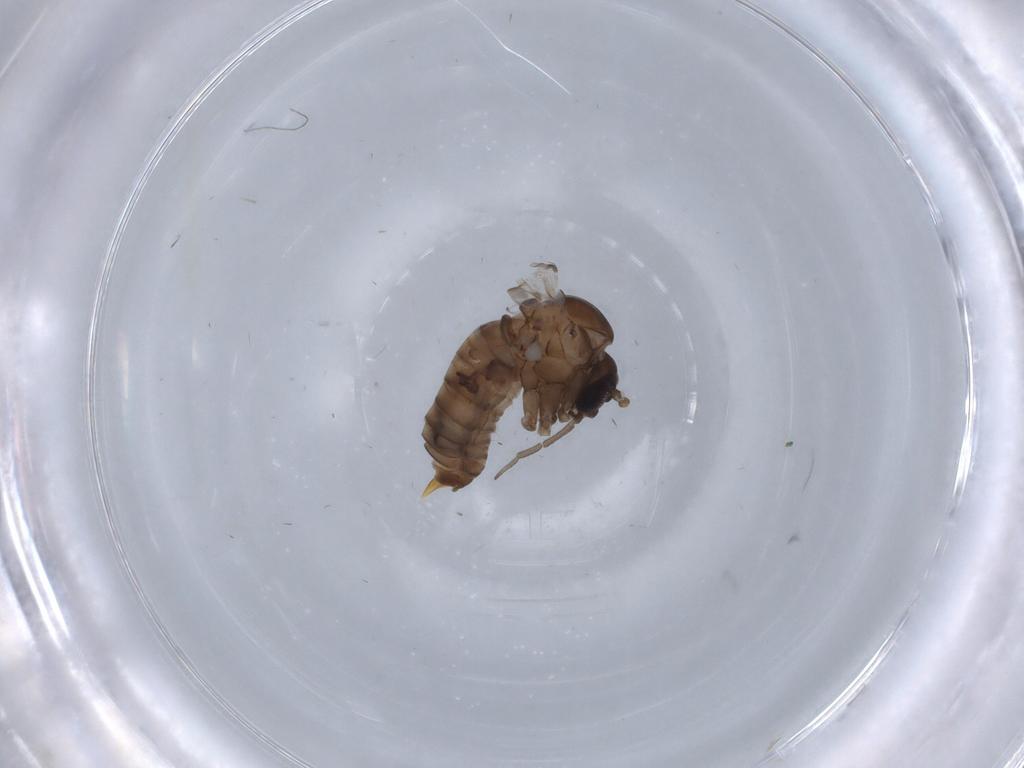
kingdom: Animalia
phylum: Arthropoda
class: Insecta
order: Diptera
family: Psychodidae
